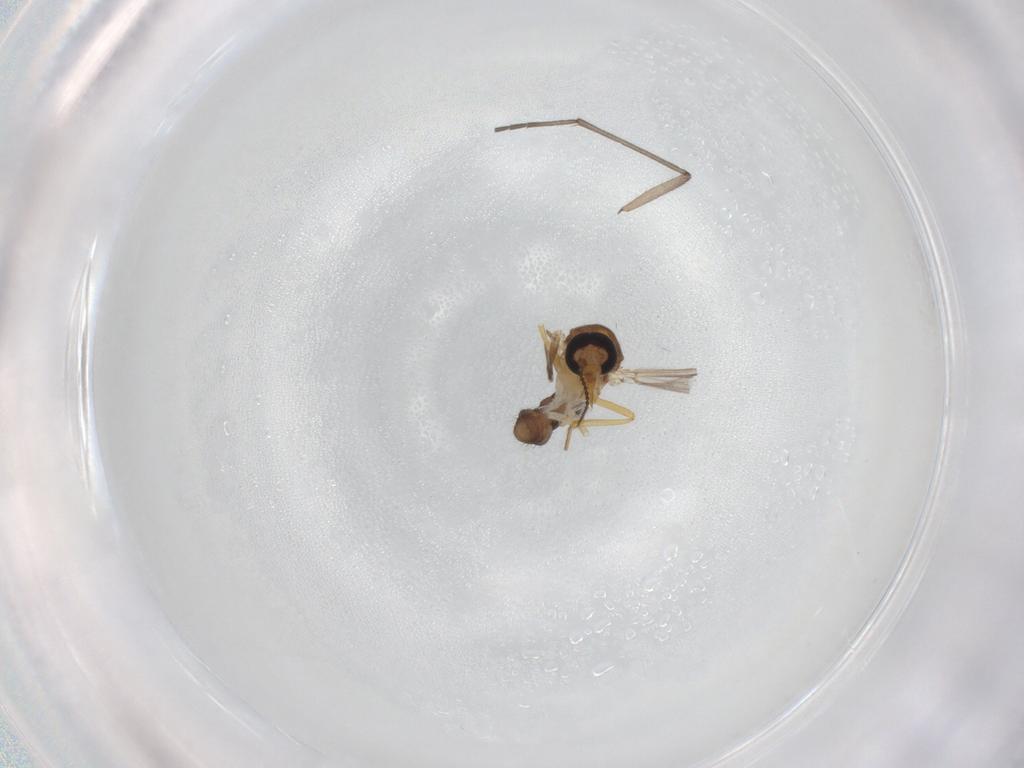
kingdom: Animalia
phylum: Arthropoda
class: Insecta
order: Diptera
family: Ceratopogonidae
